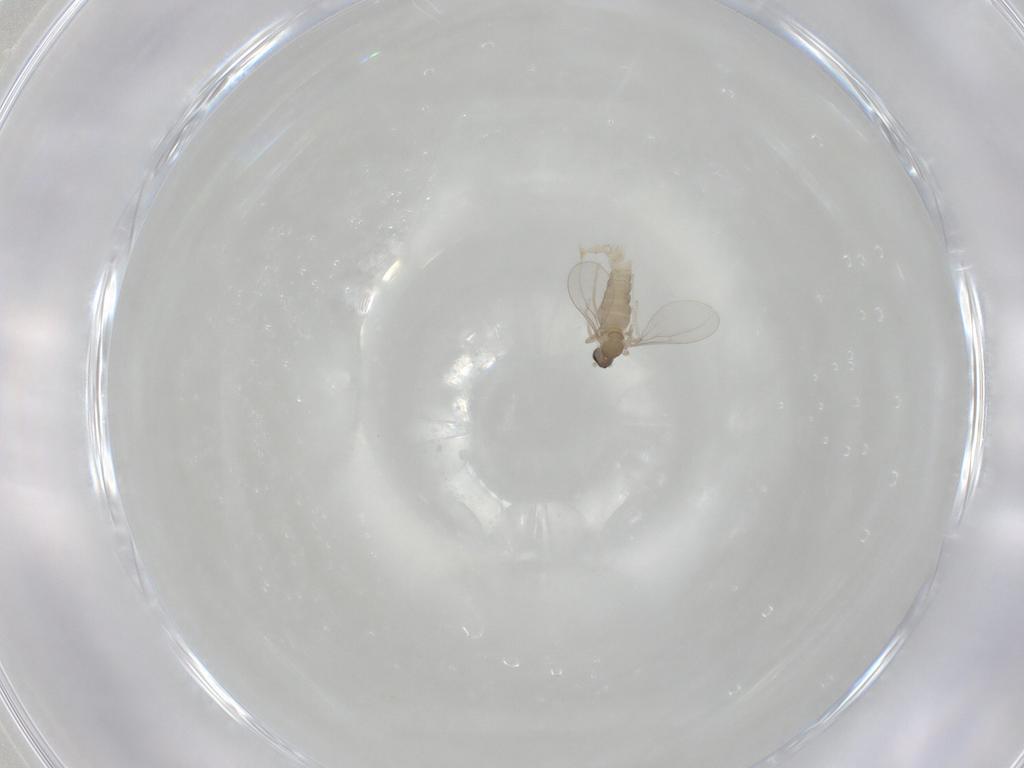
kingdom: Animalia
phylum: Arthropoda
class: Insecta
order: Diptera
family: Cecidomyiidae
